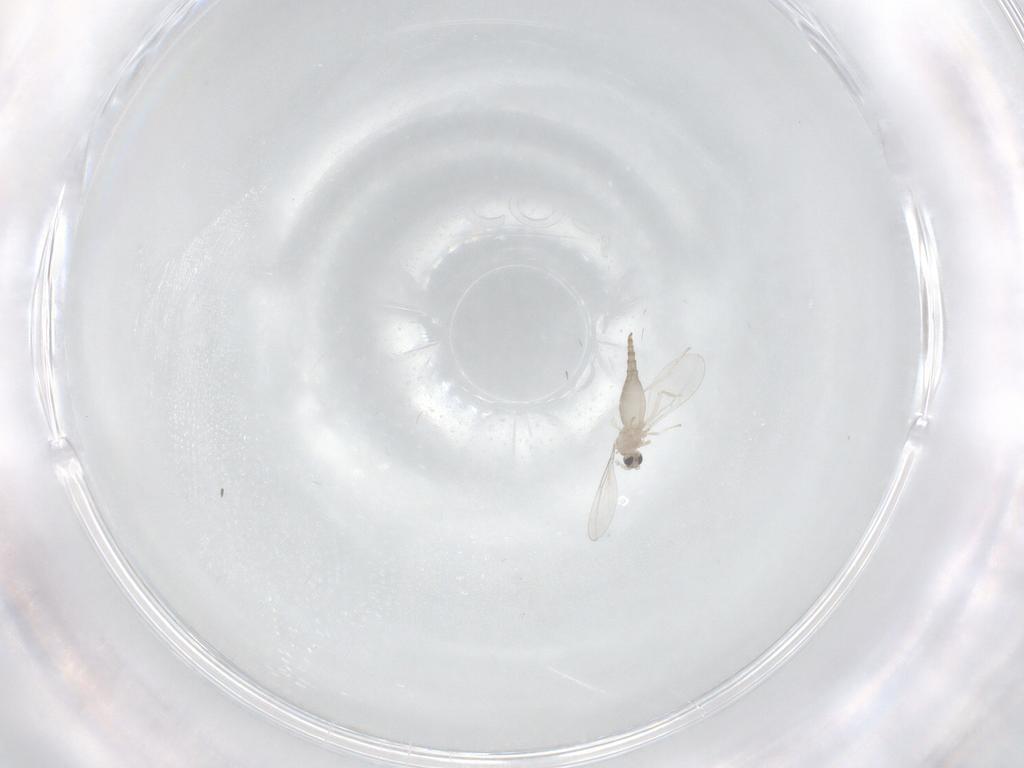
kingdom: Animalia
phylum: Arthropoda
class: Insecta
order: Diptera
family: Cecidomyiidae
